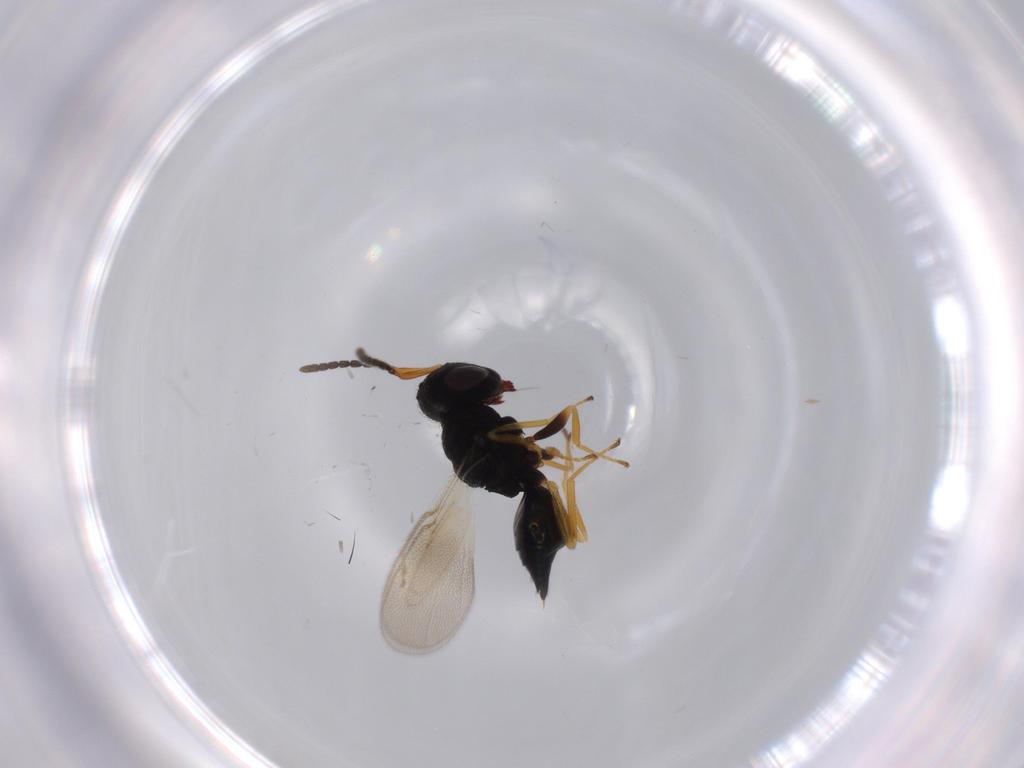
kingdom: Animalia
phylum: Arthropoda
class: Insecta
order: Hymenoptera
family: Pteromalidae
